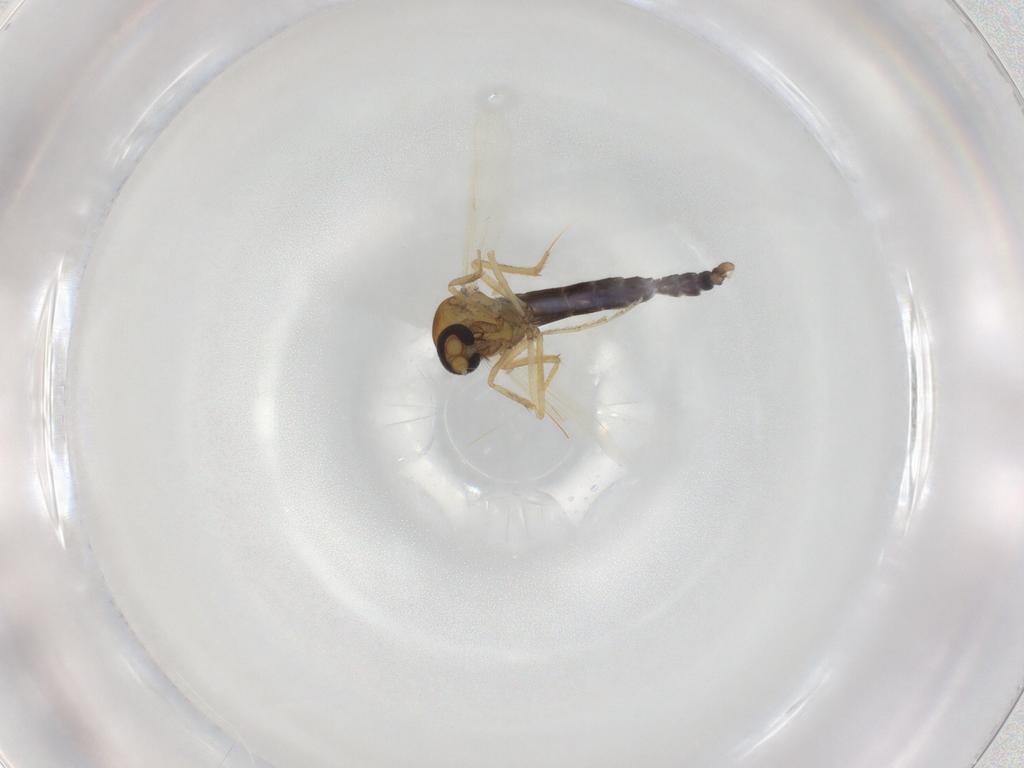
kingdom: Animalia
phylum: Arthropoda
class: Insecta
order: Diptera
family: Ceratopogonidae
